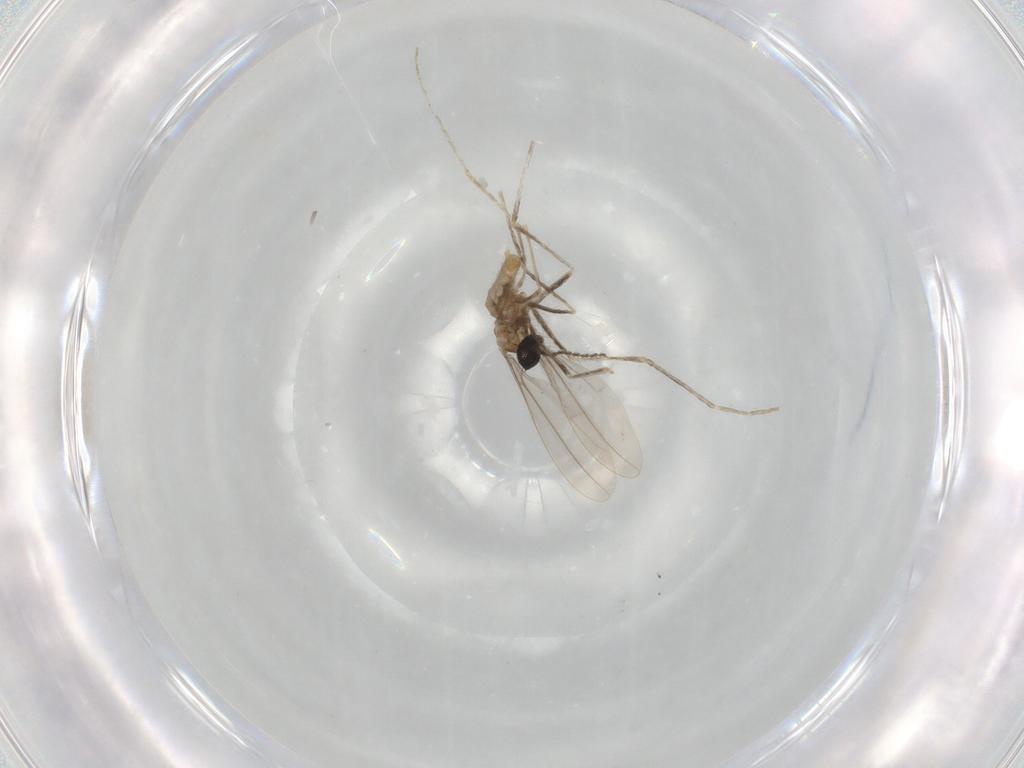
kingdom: Animalia
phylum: Arthropoda
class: Insecta
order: Diptera
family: Cecidomyiidae
